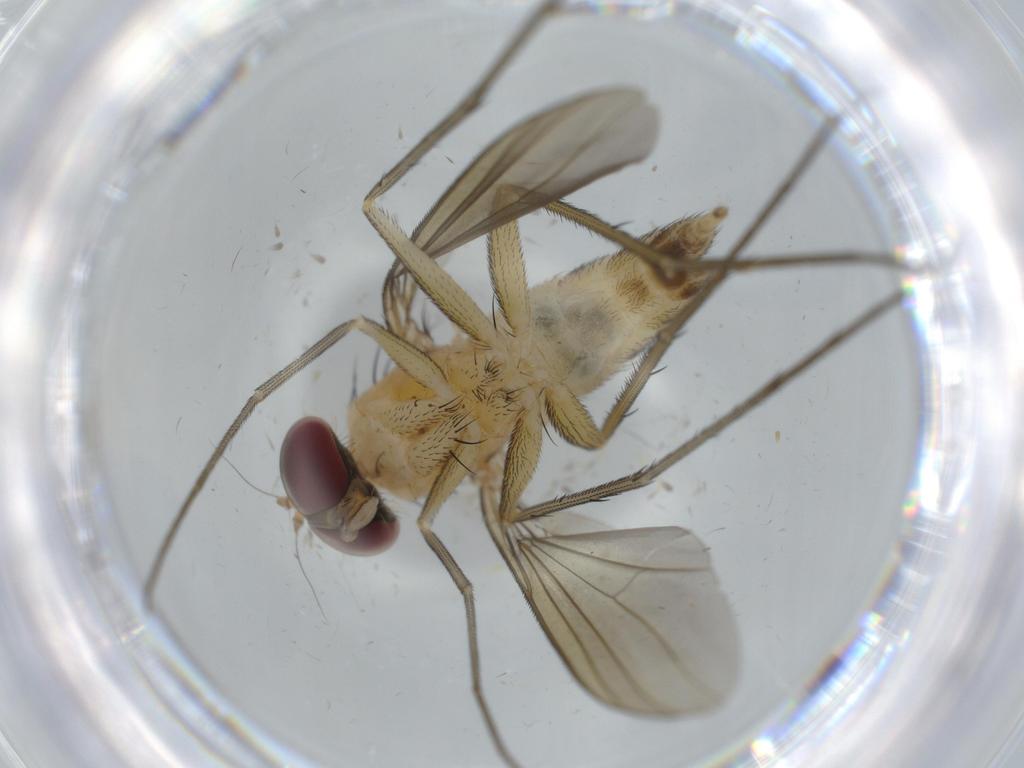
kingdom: Animalia
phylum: Arthropoda
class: Insecta
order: Diptera
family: Dolichopodidae
